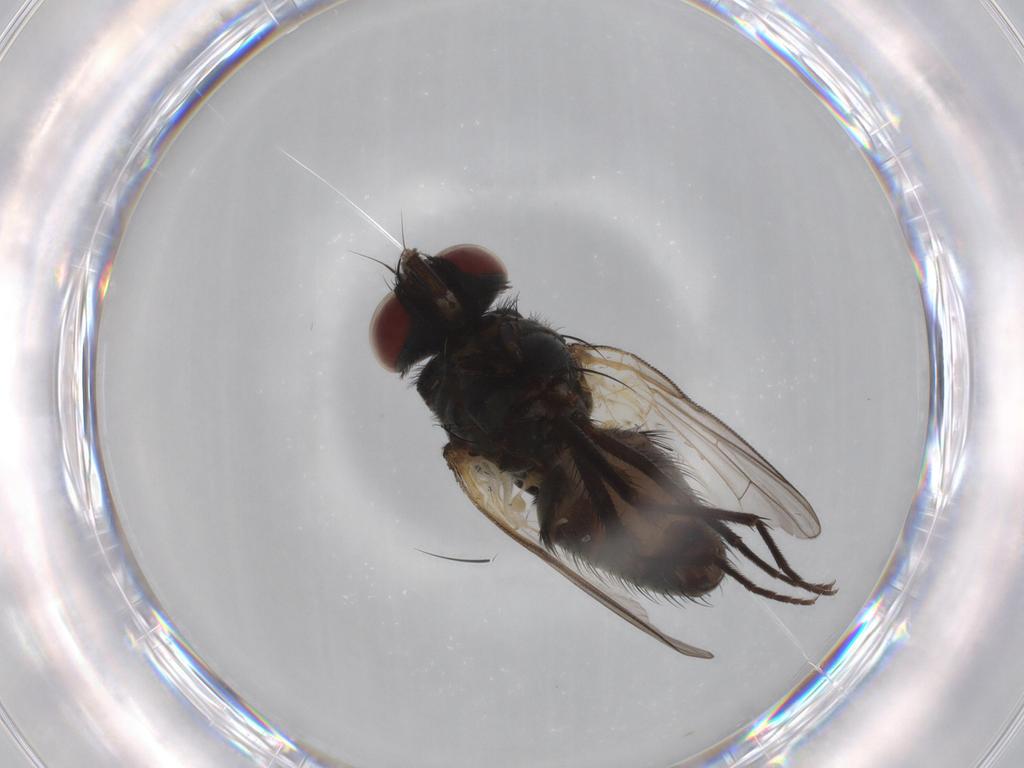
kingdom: Animalia
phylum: Arthropoda
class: Insecta
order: Diptera
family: Muscidae
